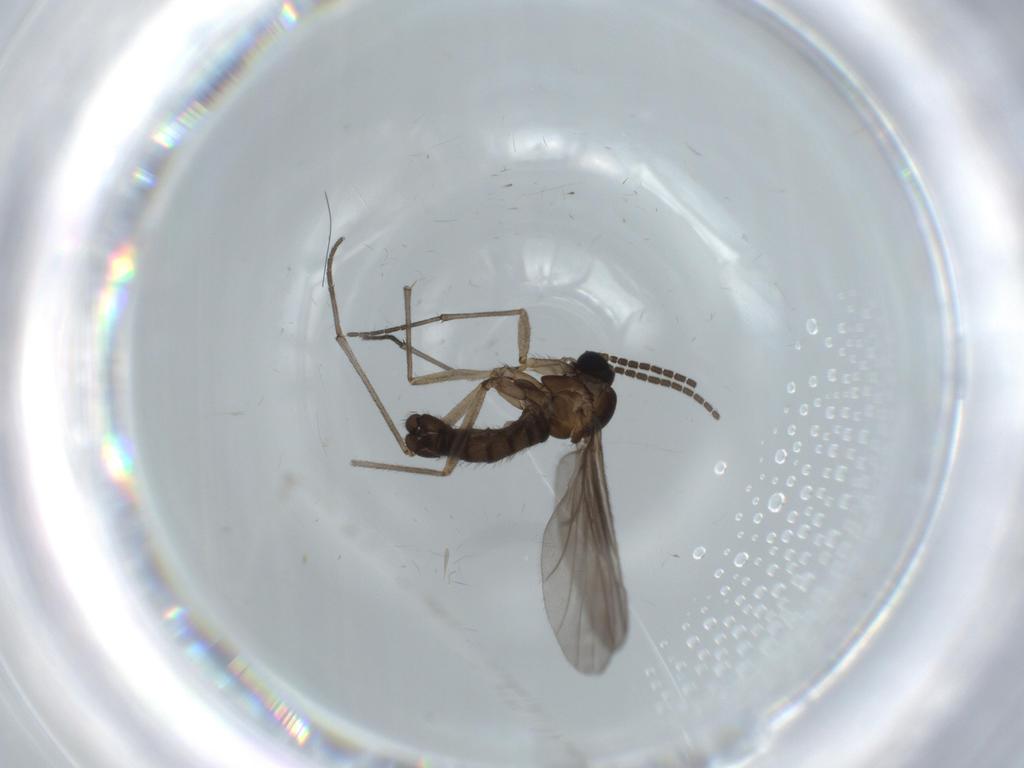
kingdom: Animalia
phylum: Arthropoda
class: Insecta
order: Diptera
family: Sciaridae
